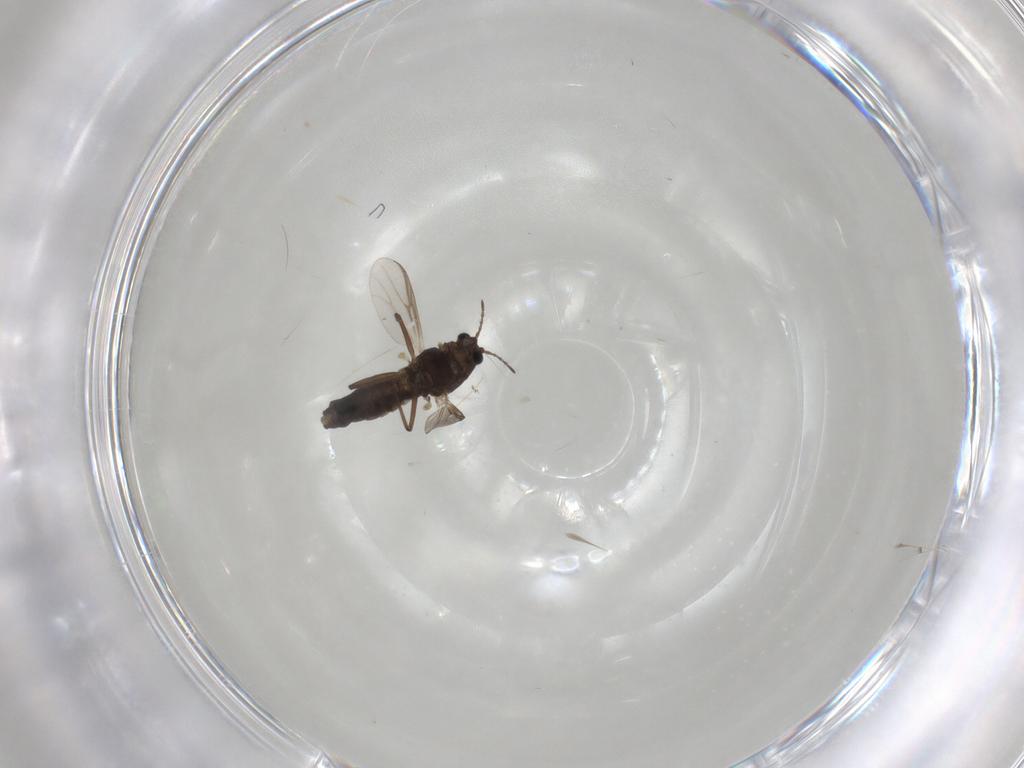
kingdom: Animalia
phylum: Arthropoda
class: Insecta
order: Diptera
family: Chironomidae
